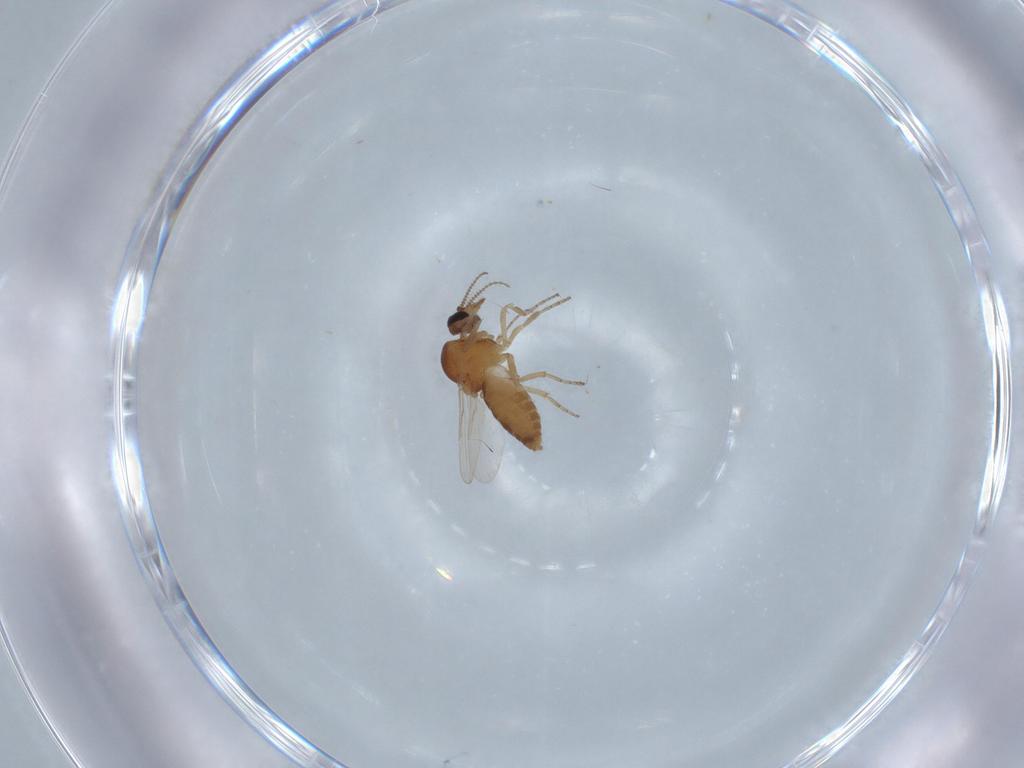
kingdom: Animalia
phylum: Arthropoda
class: Insecta
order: Diptera
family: Ceratopogonidae
